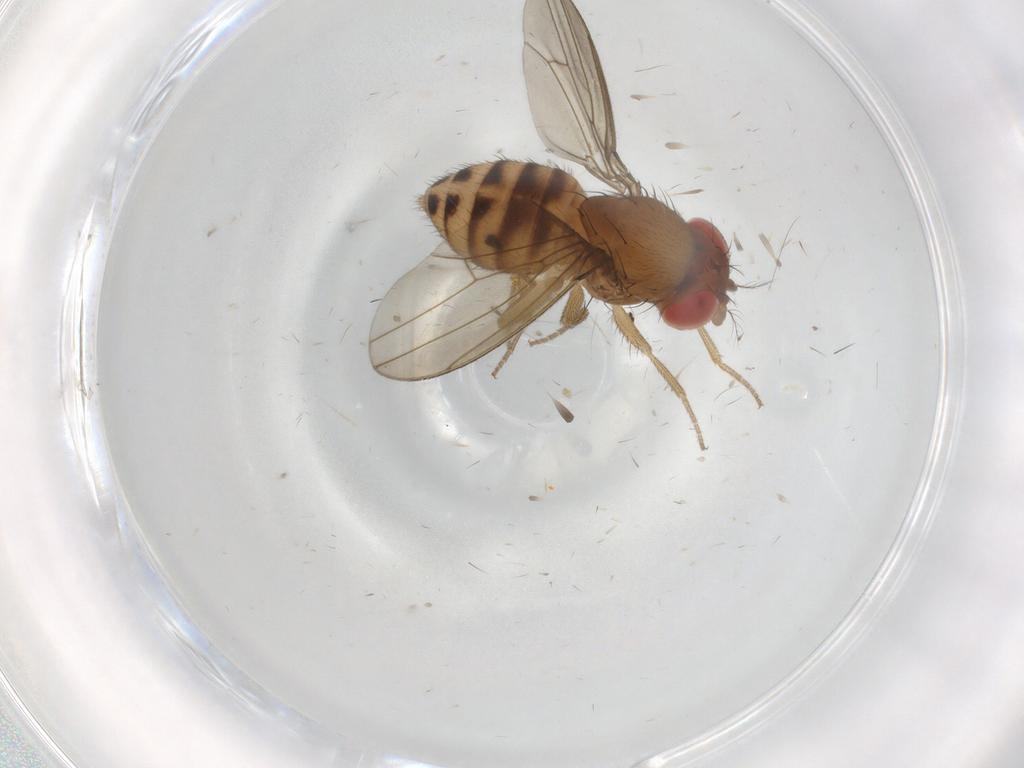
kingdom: Animalia
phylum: Arthropoda
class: Insecta
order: Diptera
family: Drosophilidae
